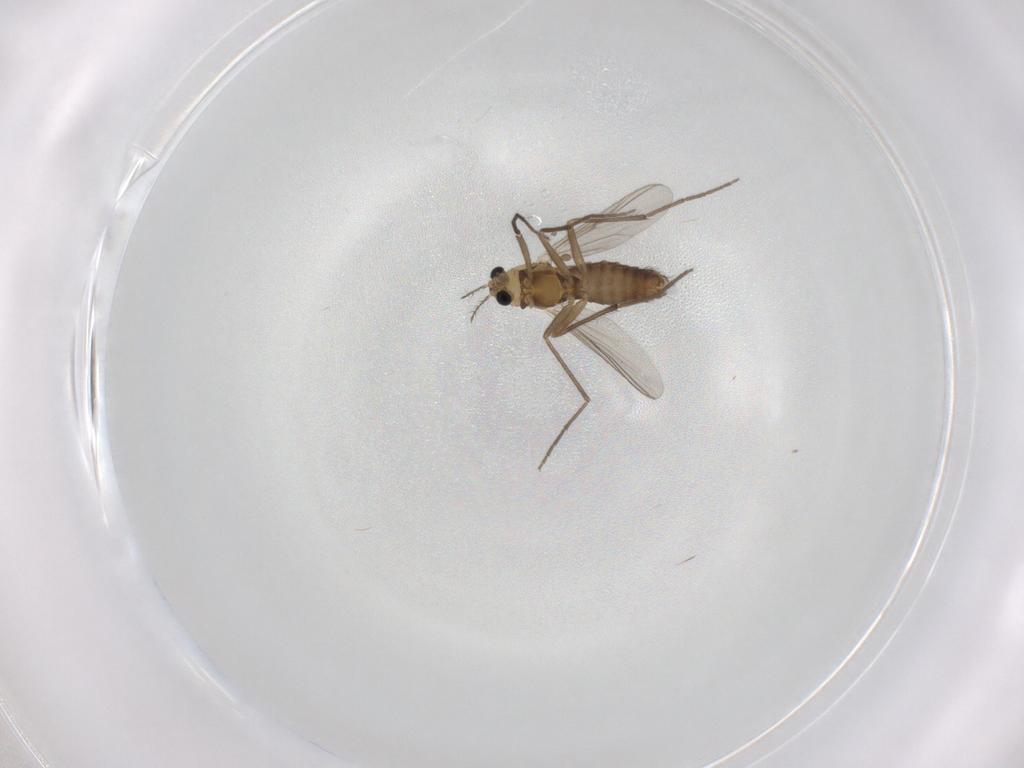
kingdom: Animalia
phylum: Arthropoda
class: Insecta
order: Diptera
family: Chironomidae
